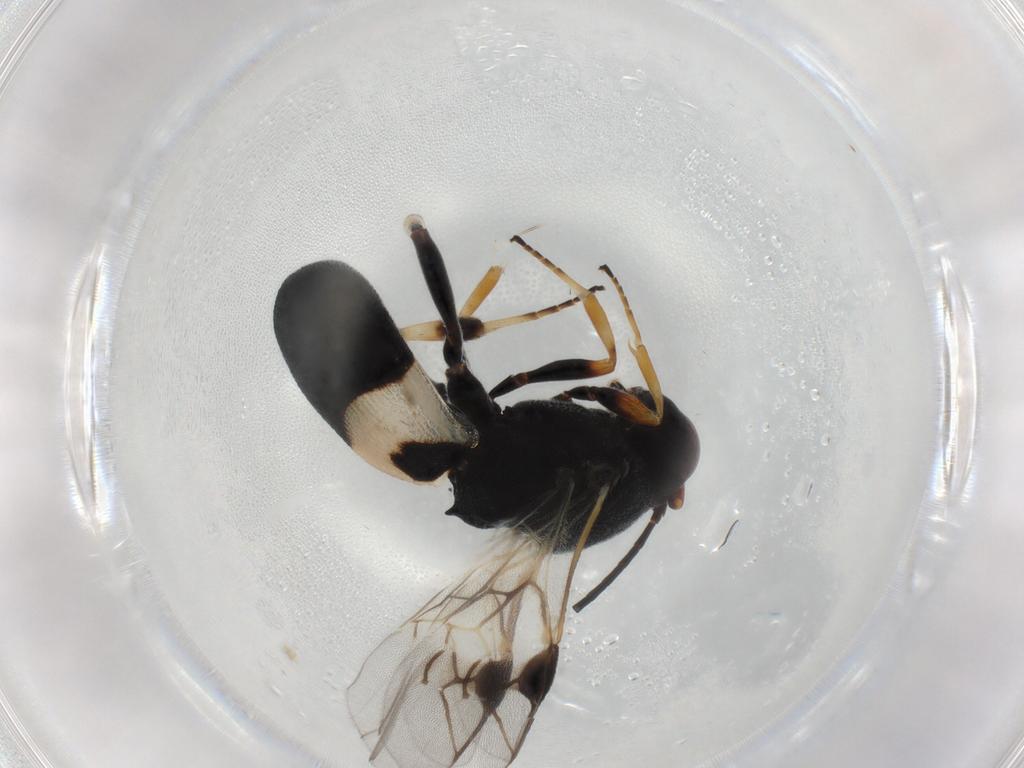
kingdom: Animalia
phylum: Arthropoda
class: Insecta
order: Hymenoptera
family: Braconidae
